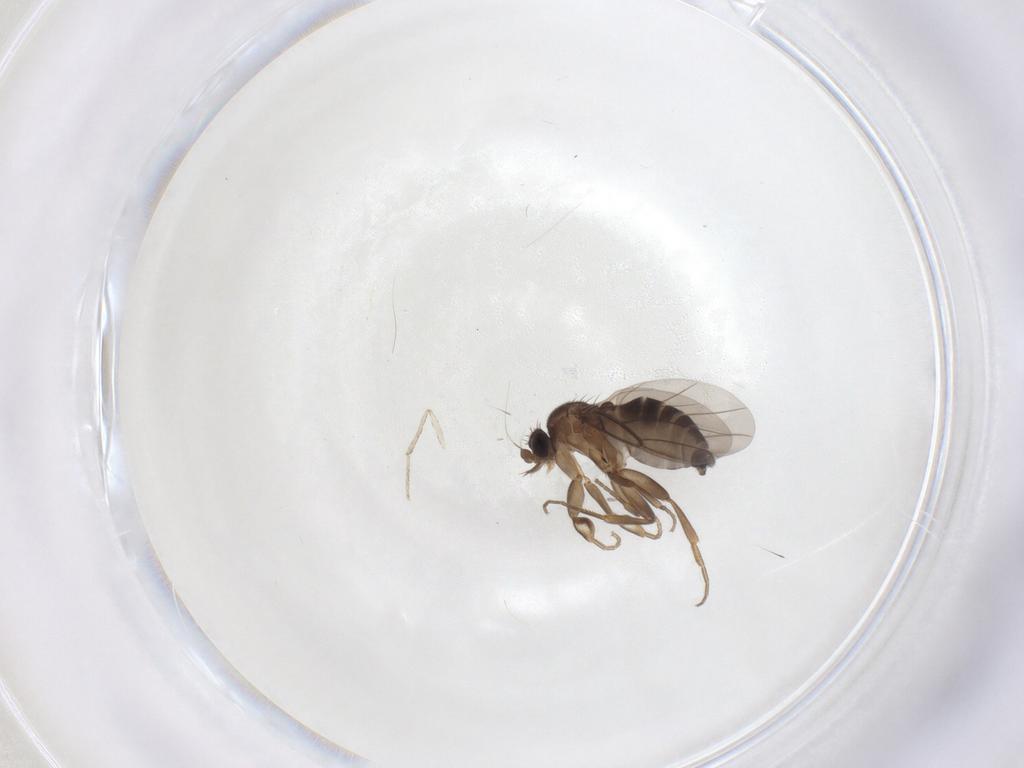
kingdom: Animalia
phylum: Arthropoda
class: Insecta
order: Diptera
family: Phoridae
